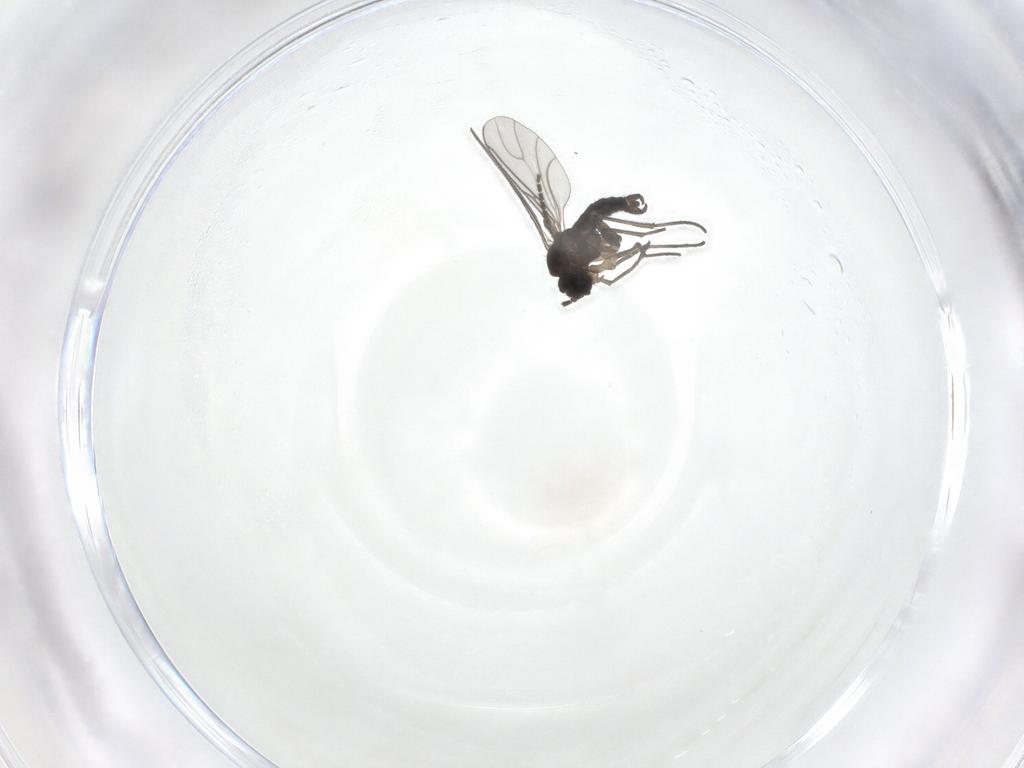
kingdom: Animalia
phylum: Arthropoda
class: Insecta
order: Diptera
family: Sciaridae
